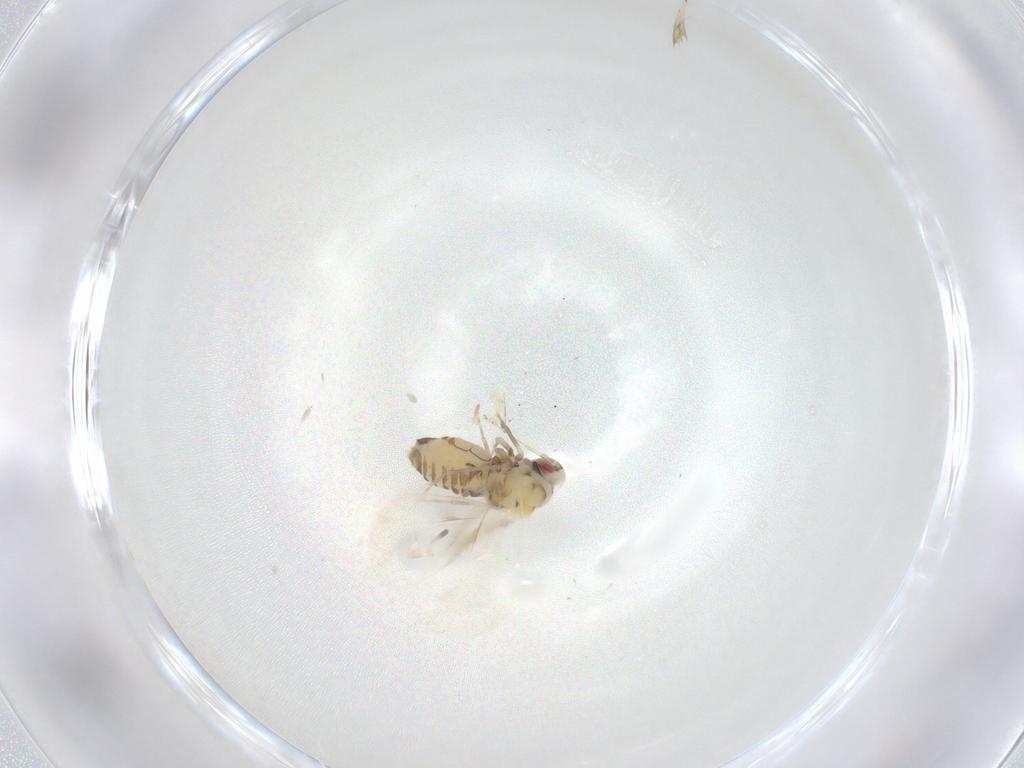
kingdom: Animalia
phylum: Arthropoda
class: Insecta
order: Hemiptera
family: Aleyrodidae
